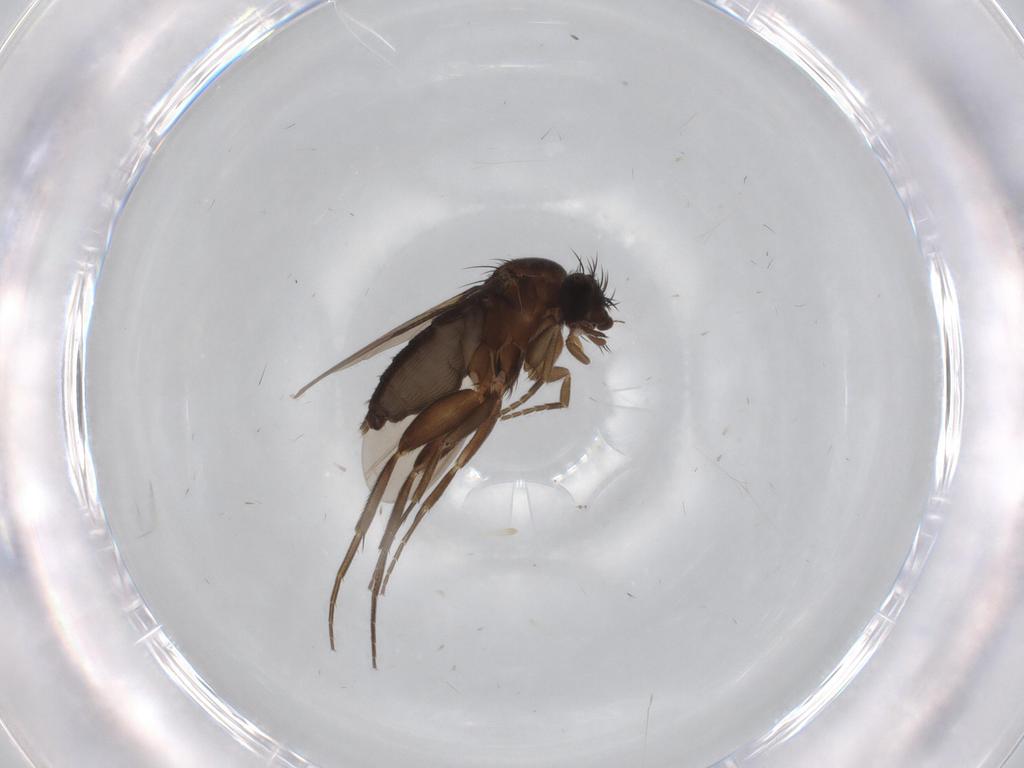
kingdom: Animalia
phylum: Arthropoda
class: Insecta
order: Diptera
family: Phoridae
